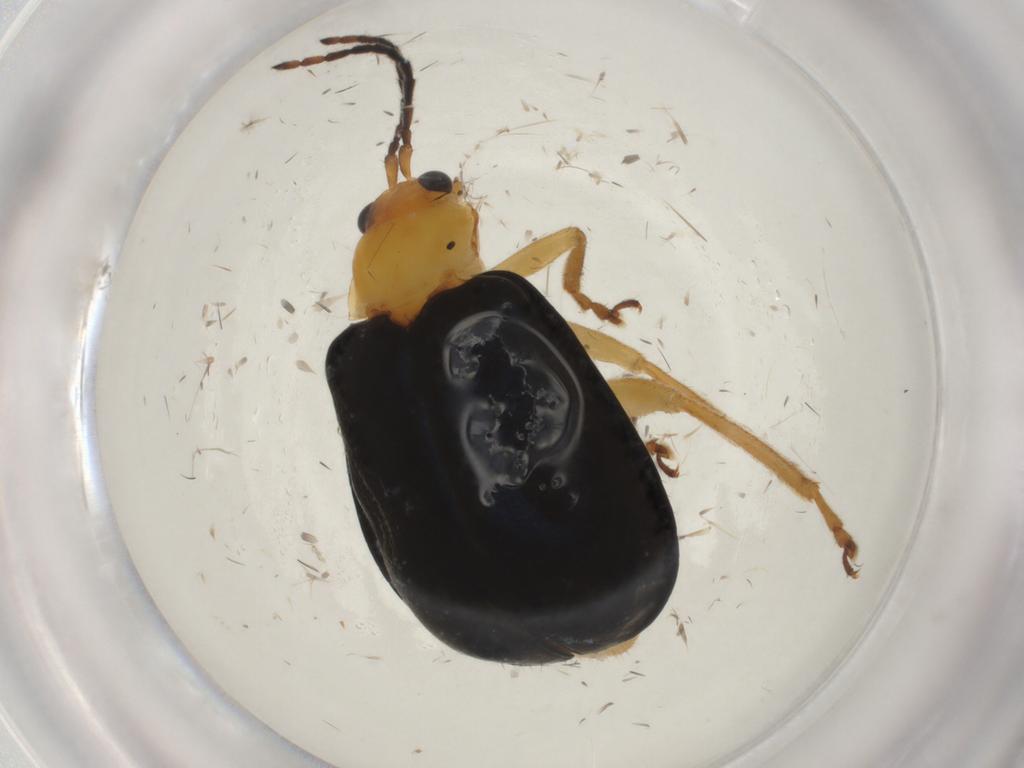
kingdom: Animalia
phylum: Arthropoda
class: Insecta
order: Coleoptera
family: Chrysomelidae
